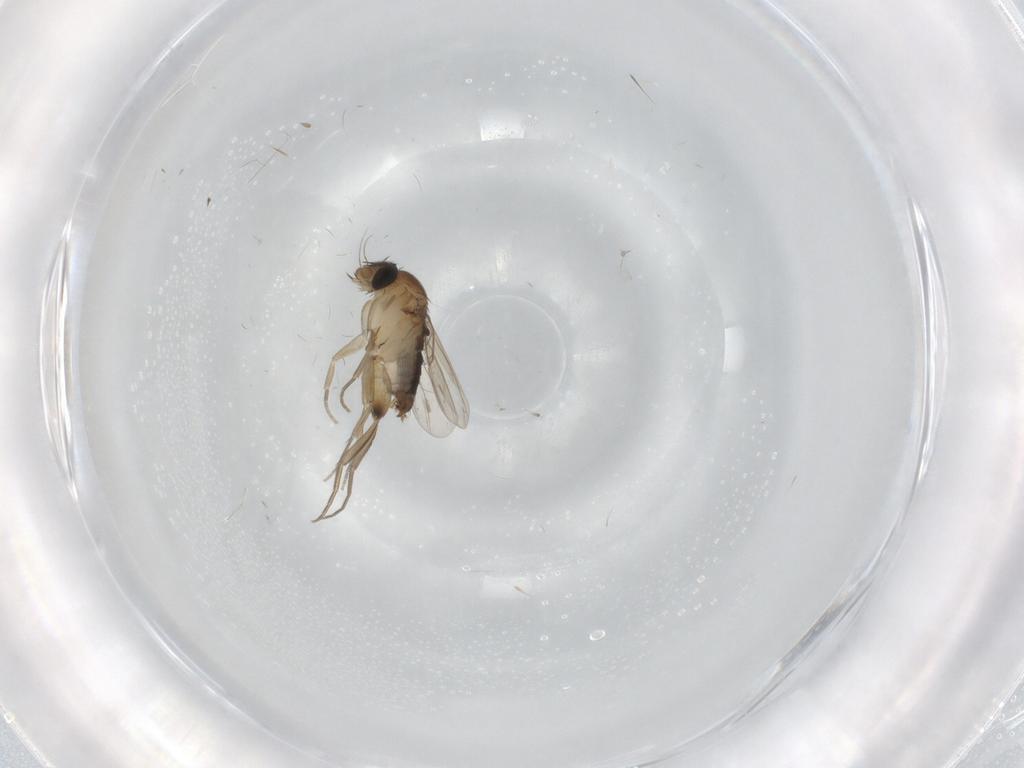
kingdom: Animalia
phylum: Arthropoda
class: Insecta
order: Diptera
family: Phoridae
